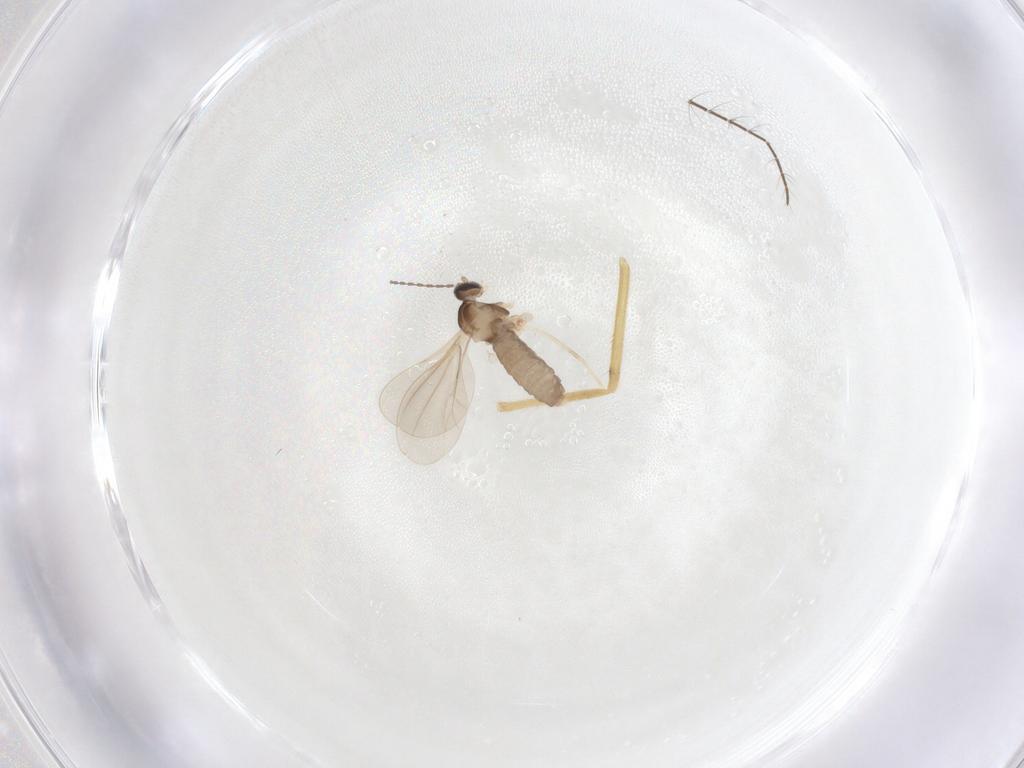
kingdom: Animalia
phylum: Arthropoda
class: Insecta
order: Diptera
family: Cecidomyiidae
